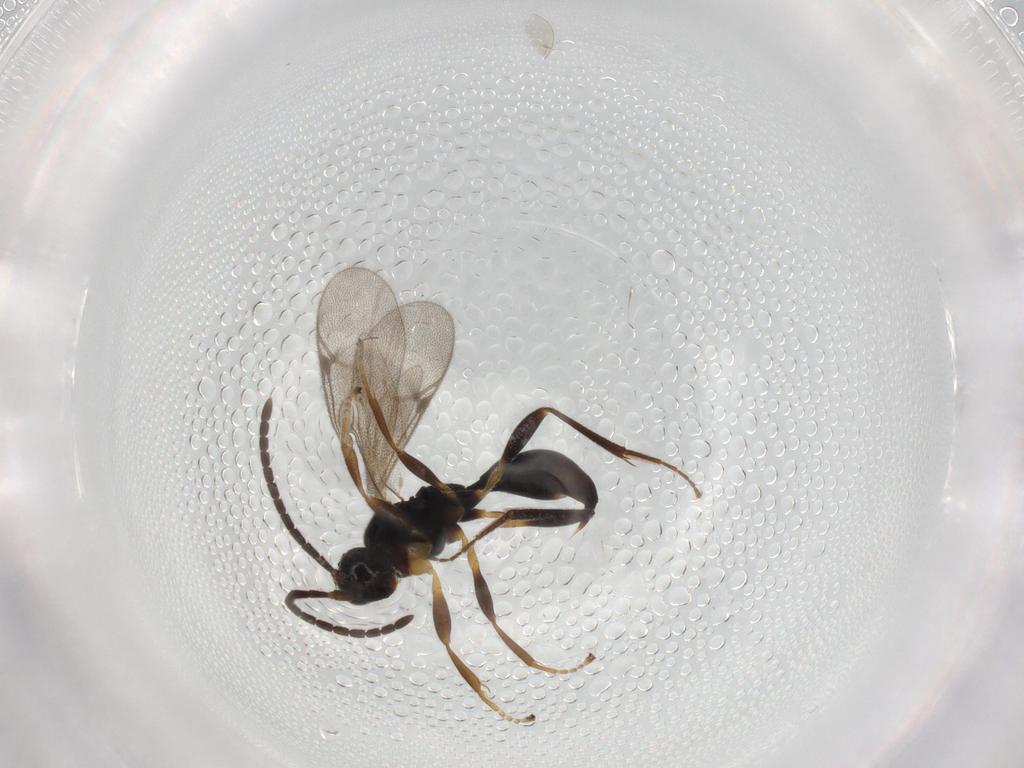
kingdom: Animalia
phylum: Arthropoda
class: Insecta
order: Hymenoptera
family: Proctotrupidae
